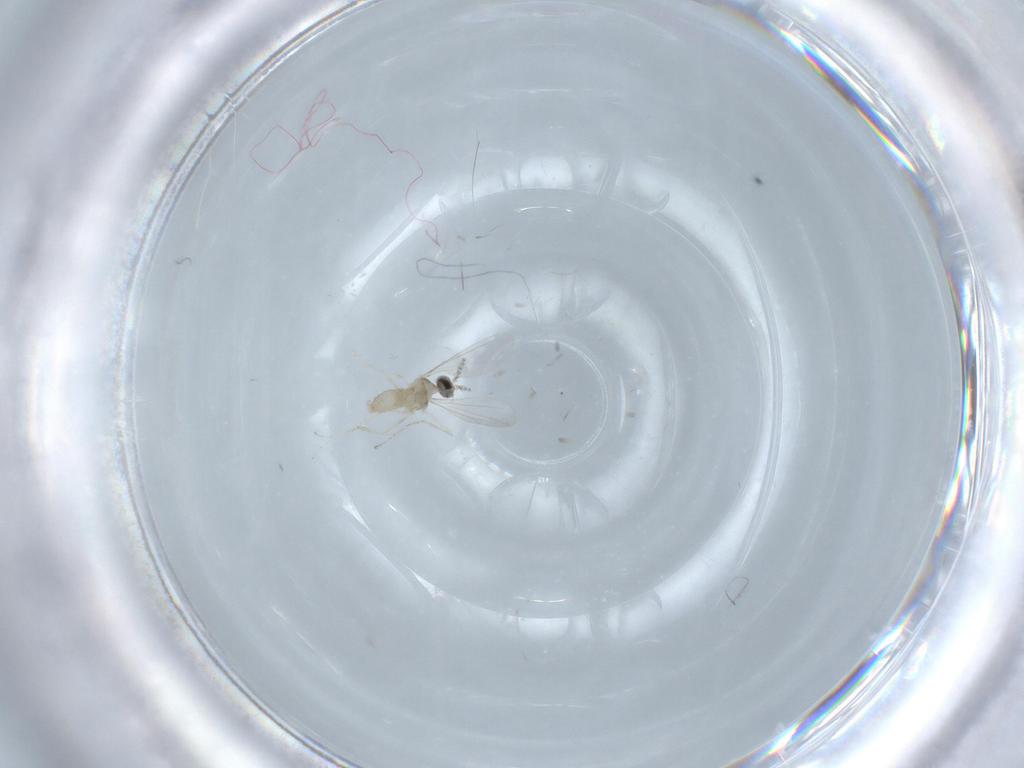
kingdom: Animalia
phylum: Arthropoda
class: Insecta
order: Diptera
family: Cecidomyiidae
